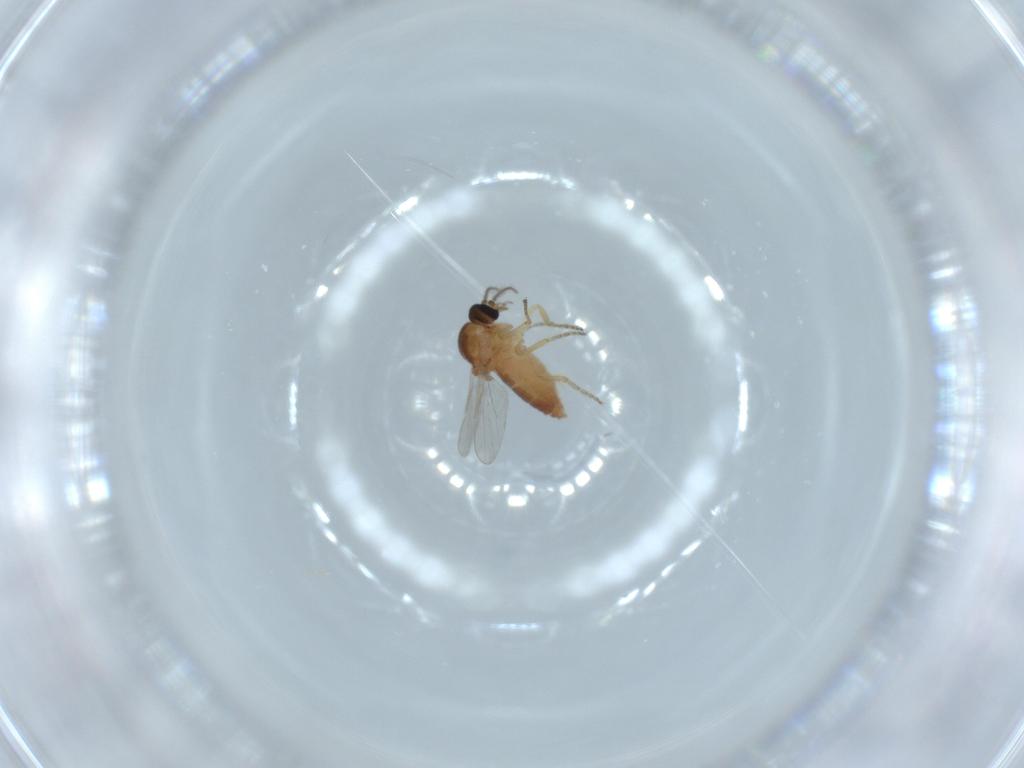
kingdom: Animalia
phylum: Arthropoda
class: Insecta
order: Diptera
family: Ceratopogonidae
